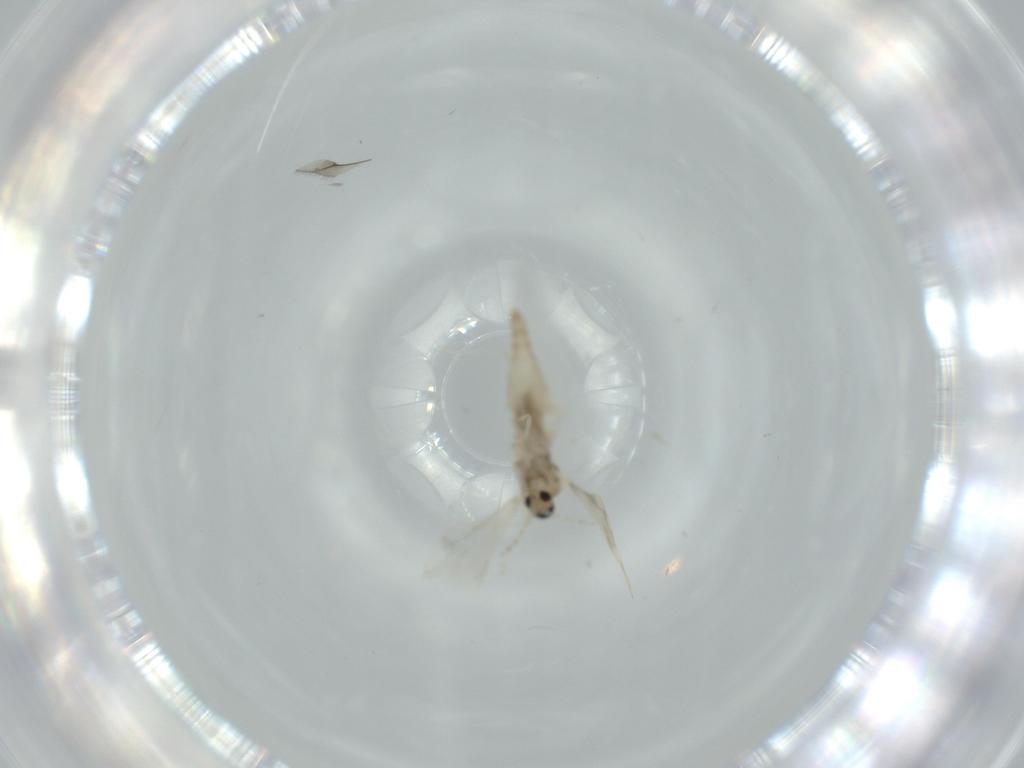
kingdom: Animalia
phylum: Arthropoda
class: Insecta
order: Diptera
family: Cecidomyiidae
